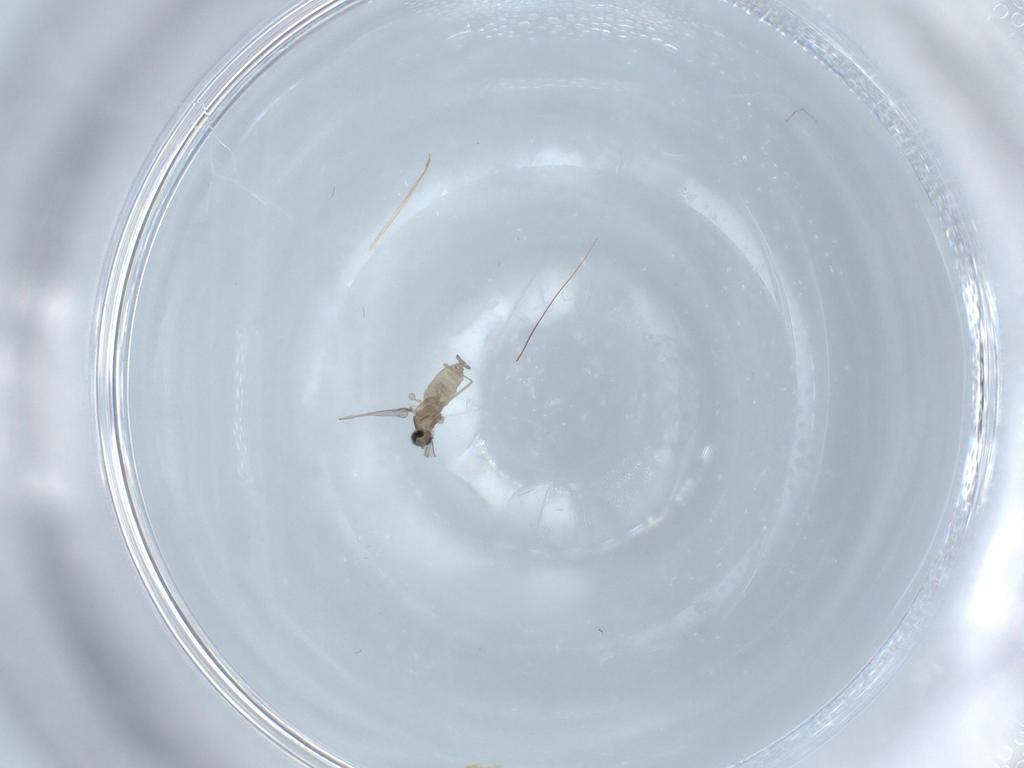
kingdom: Animalia
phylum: Arthropoda
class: Insecta
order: Diptera
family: Cecidomyiidae
